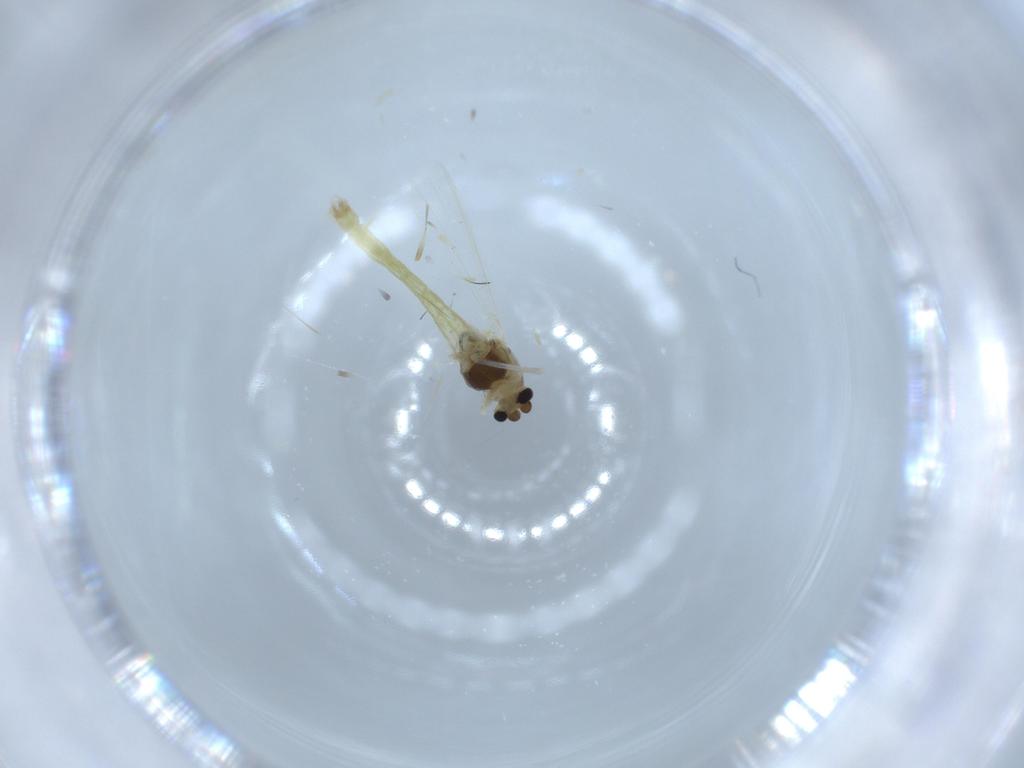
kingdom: Animalia
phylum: Arthropoda
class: Insecta
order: Diptera
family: Chironomidae
